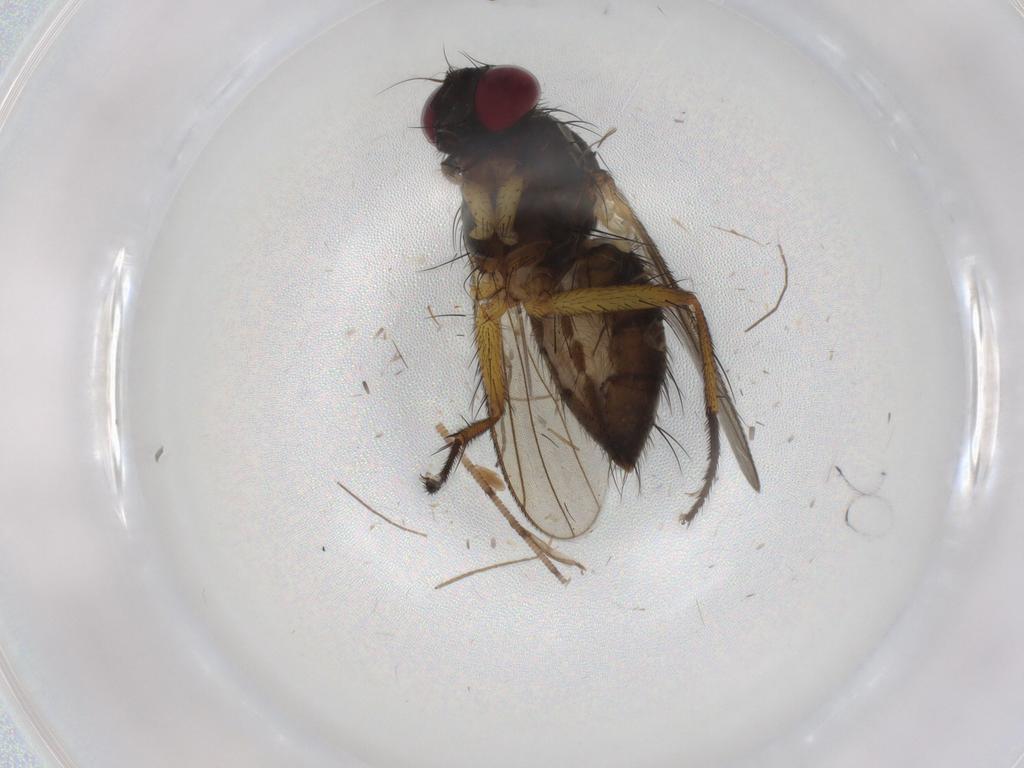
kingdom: Animalia
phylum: Arthropoda
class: Insecta
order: Diptera
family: Muscidae
